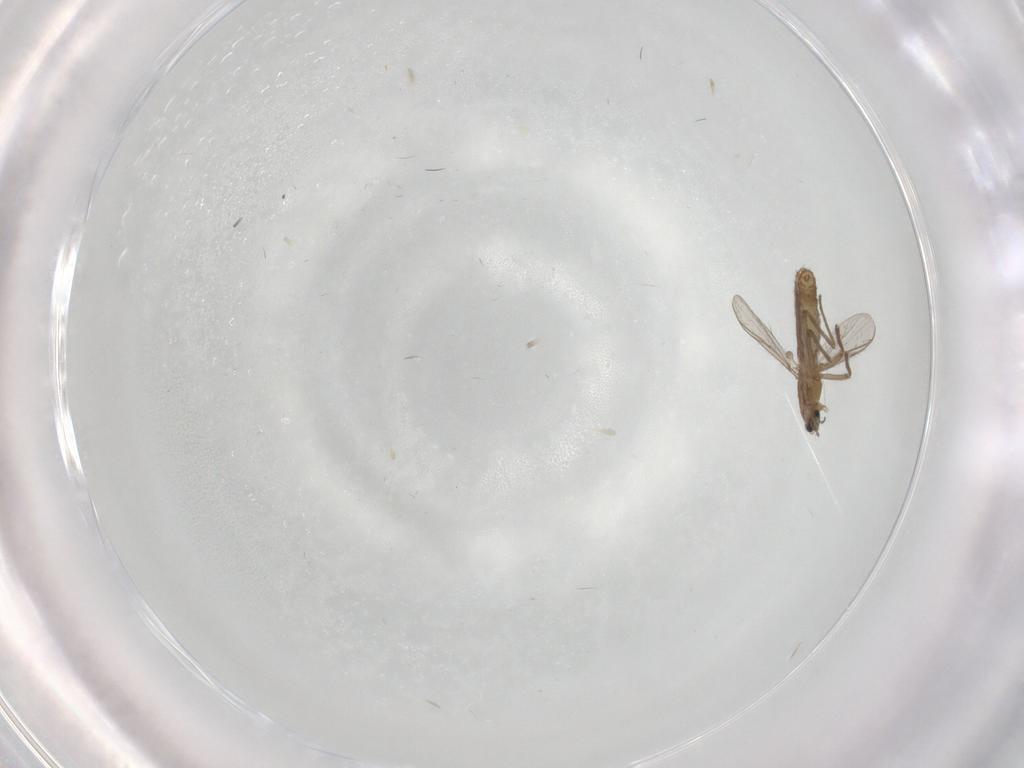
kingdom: Animalia
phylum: Arthropoda
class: Insecta
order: Diptera
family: Chironomidae
